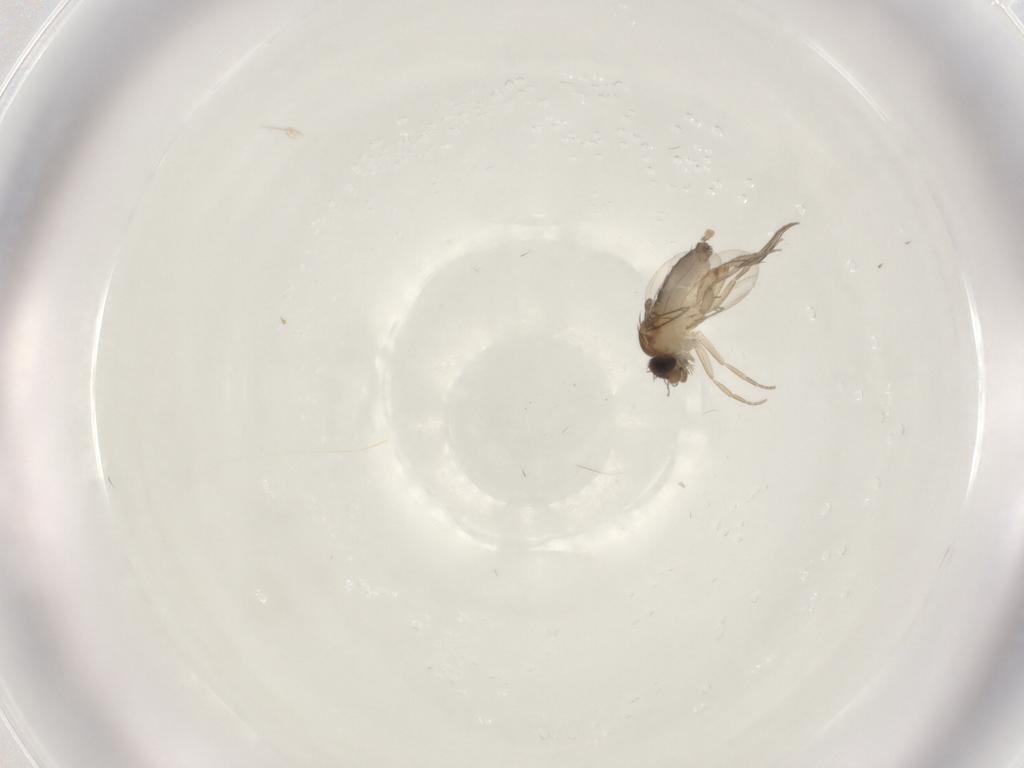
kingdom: Animalia
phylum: Arthropoda
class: Insecta
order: Diptera
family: Phoridae
